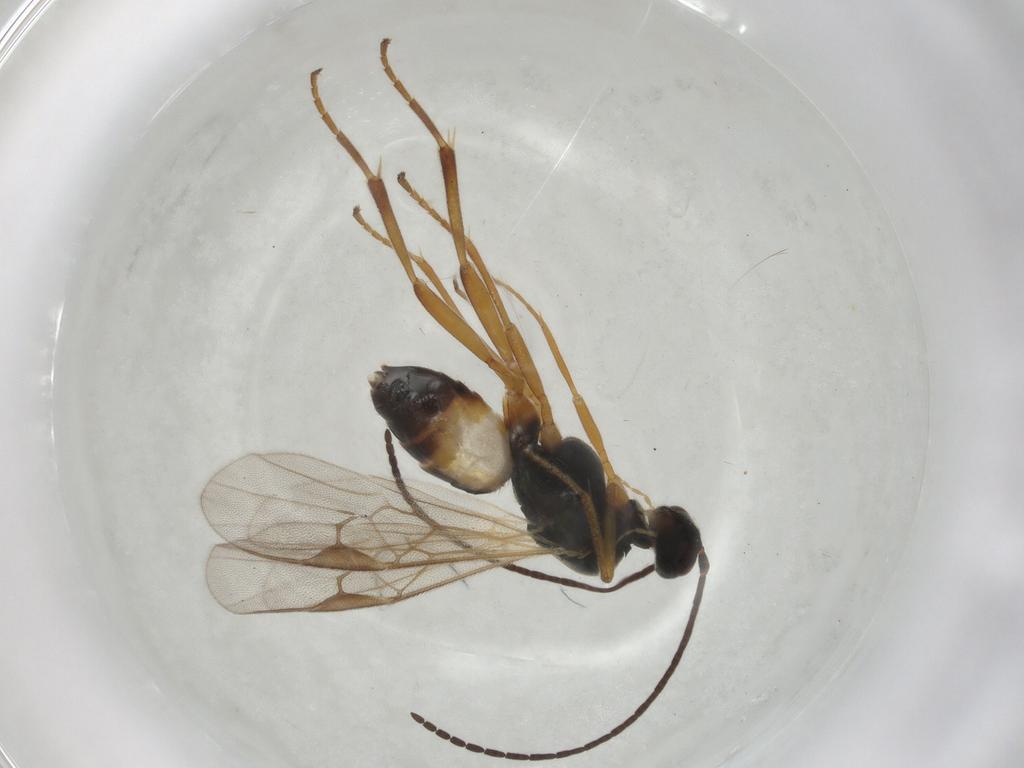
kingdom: Animalia
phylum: Arthropoda
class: Insecta
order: Hymenoptera
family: Braconidae
